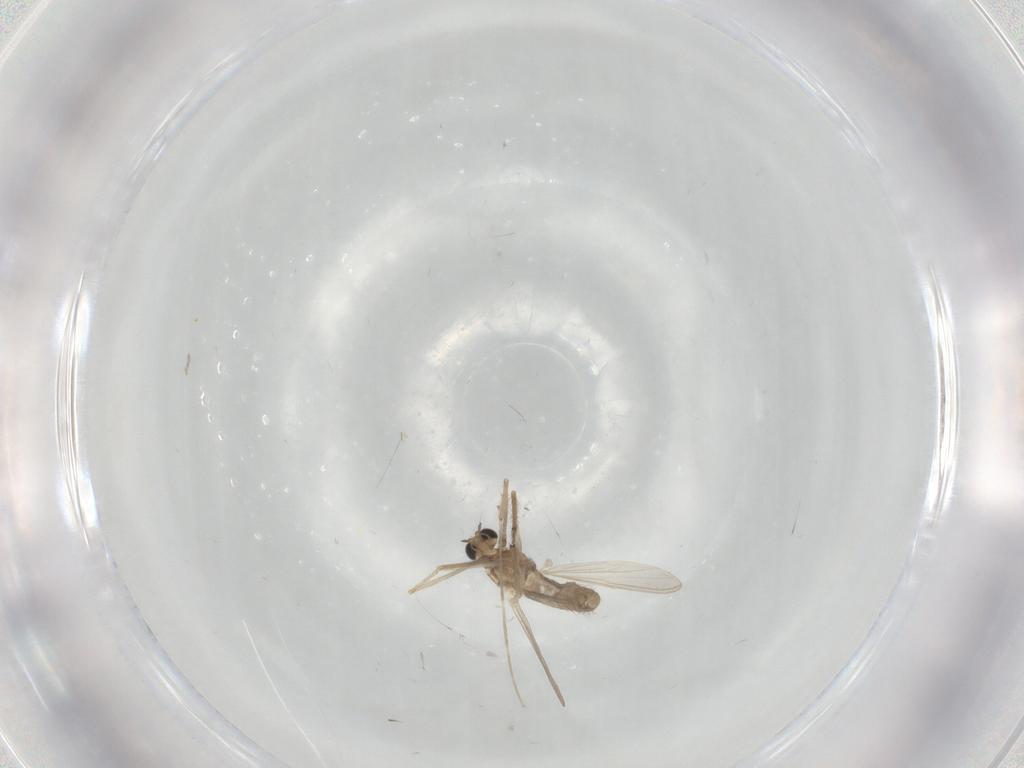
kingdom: Animalia
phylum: Arthropoda
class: Insecta
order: Diptera
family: Chironomidae
